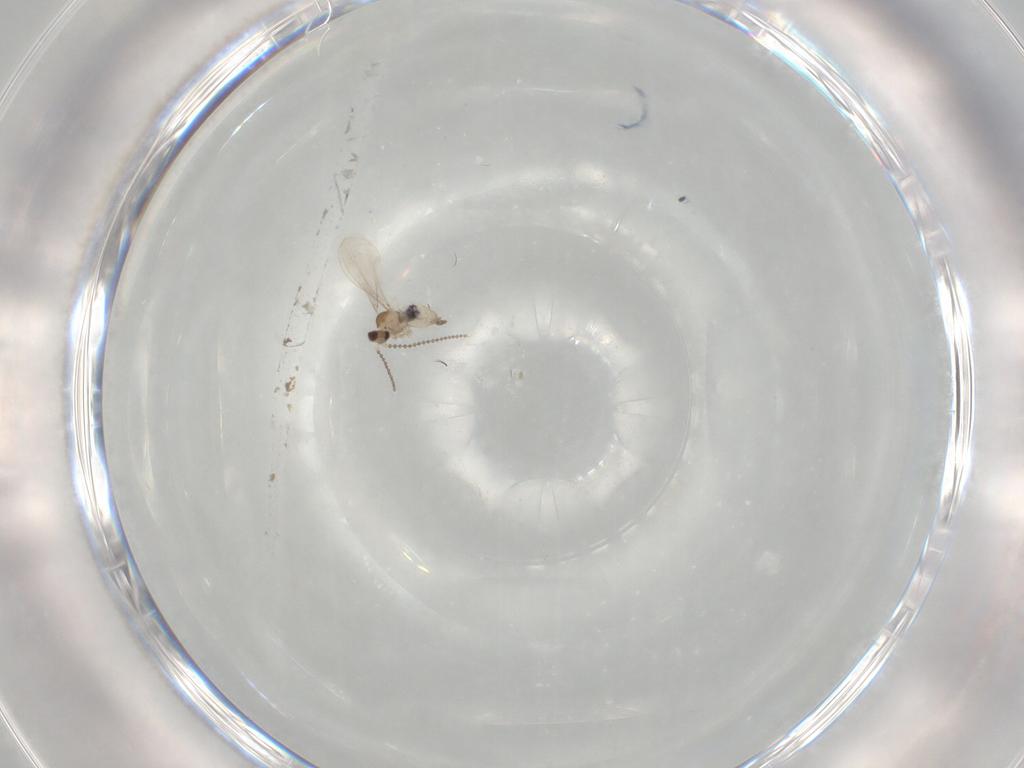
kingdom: Animalia
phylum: Arthropoda
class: Insecta
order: Diptera
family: Cecidomyiidae
